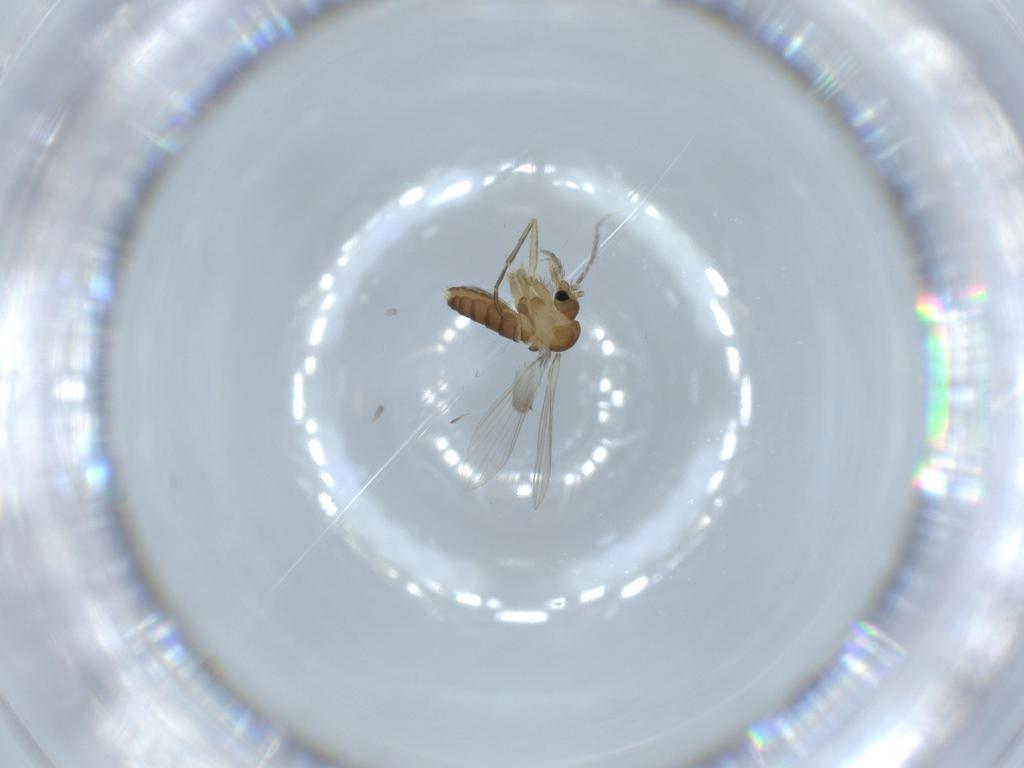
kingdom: Animalia
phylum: Arthropoda
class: Insecta
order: Diptera
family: Psychodidae
